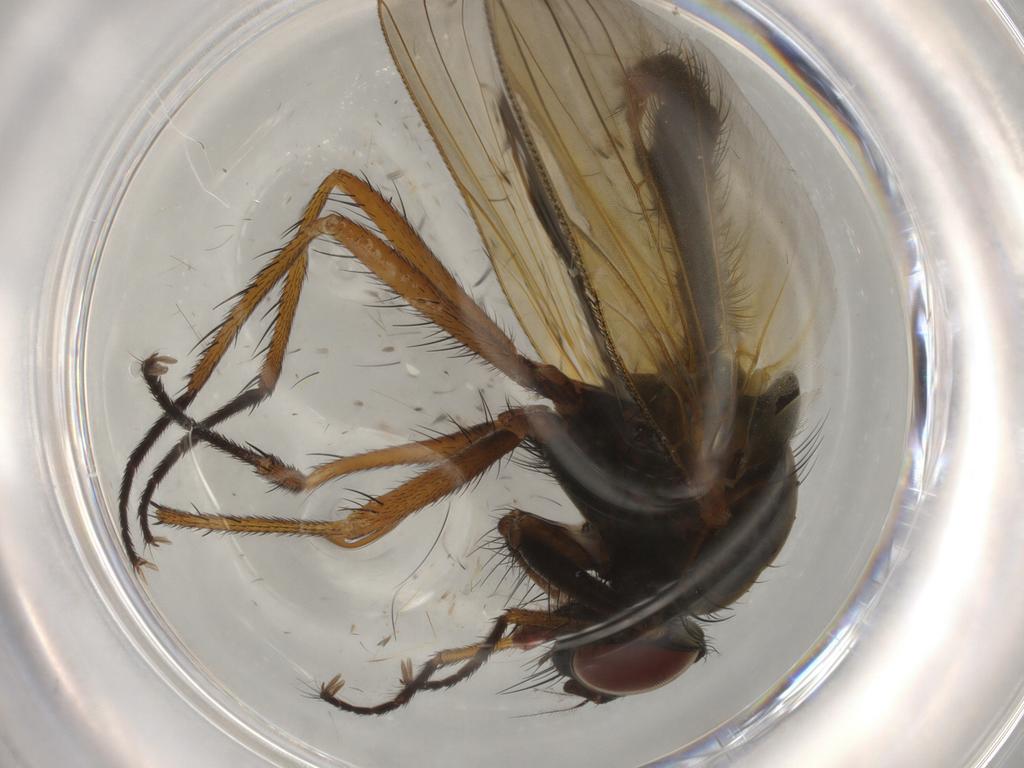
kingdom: Animalia
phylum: Arthropoda
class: Insecta
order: Diptera
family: Anthomyiidae
